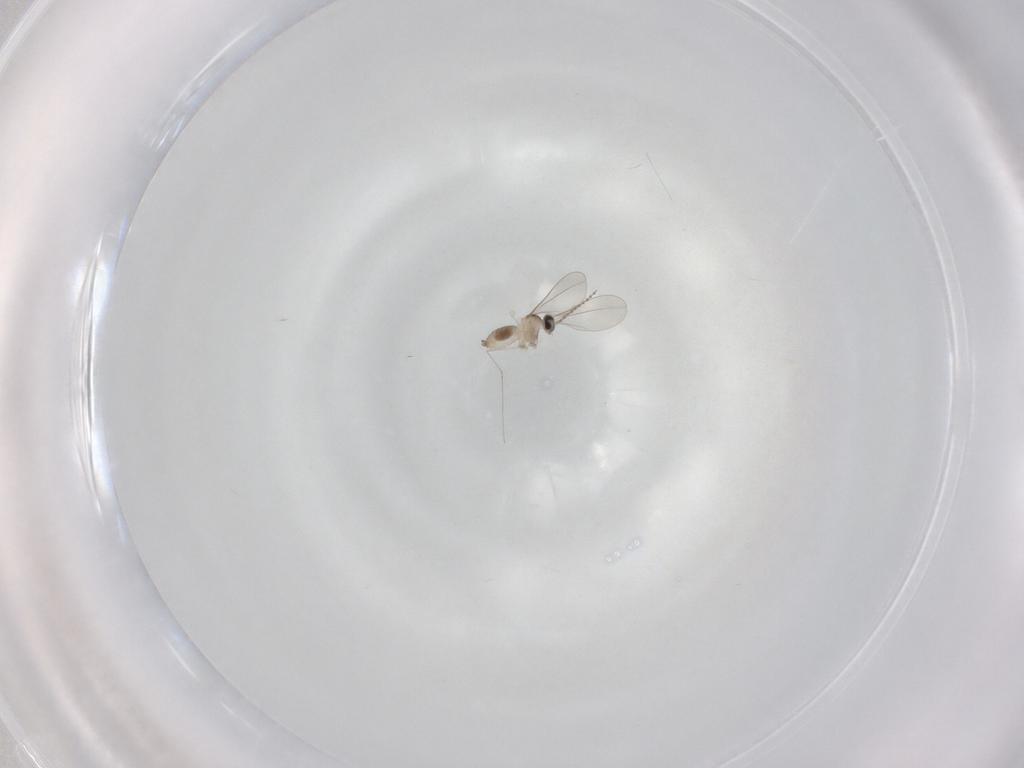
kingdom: Animalia
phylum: Arthropoda
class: Insecta
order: Diptera
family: Cecidomyiidae
